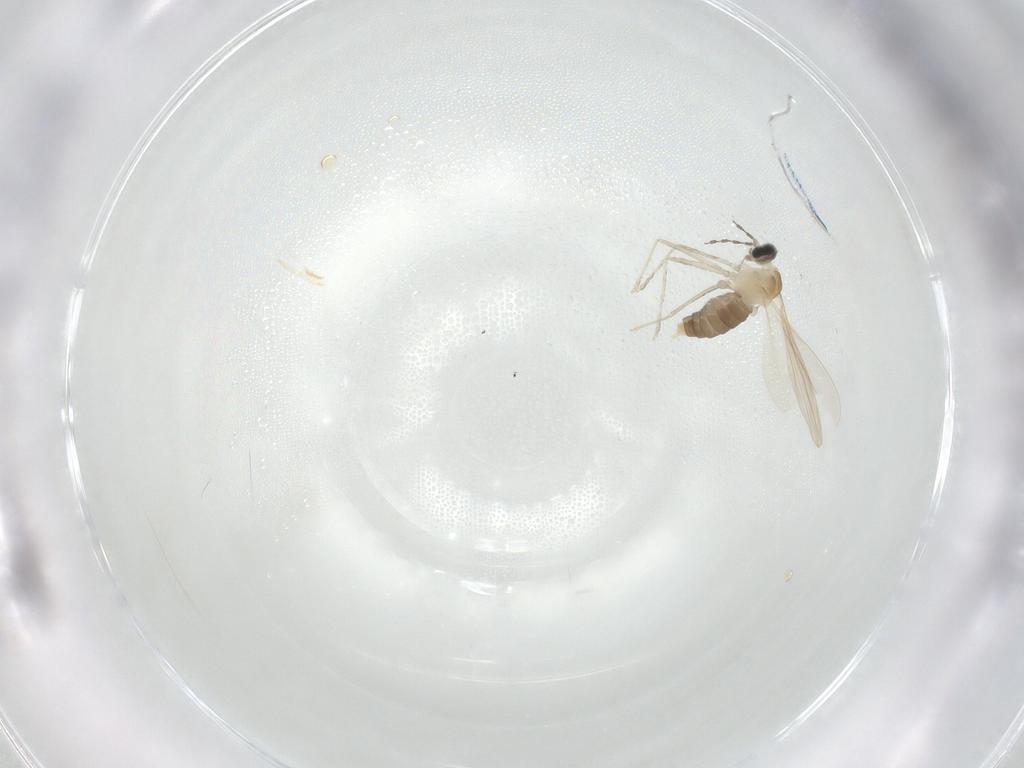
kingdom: Animalia
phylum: Arthropoda
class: Insecta
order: Diptera
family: Cecidomyiidae
